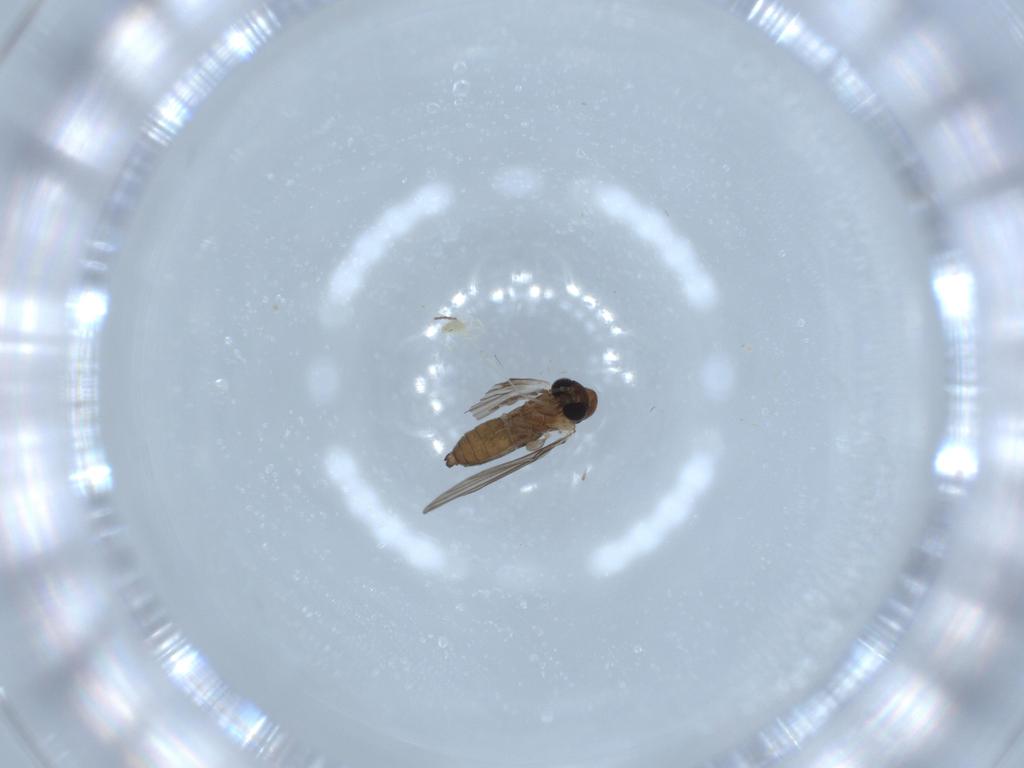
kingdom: Animalia
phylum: Arthropoda
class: Insecta
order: Diptera
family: Cecidomyiidae
